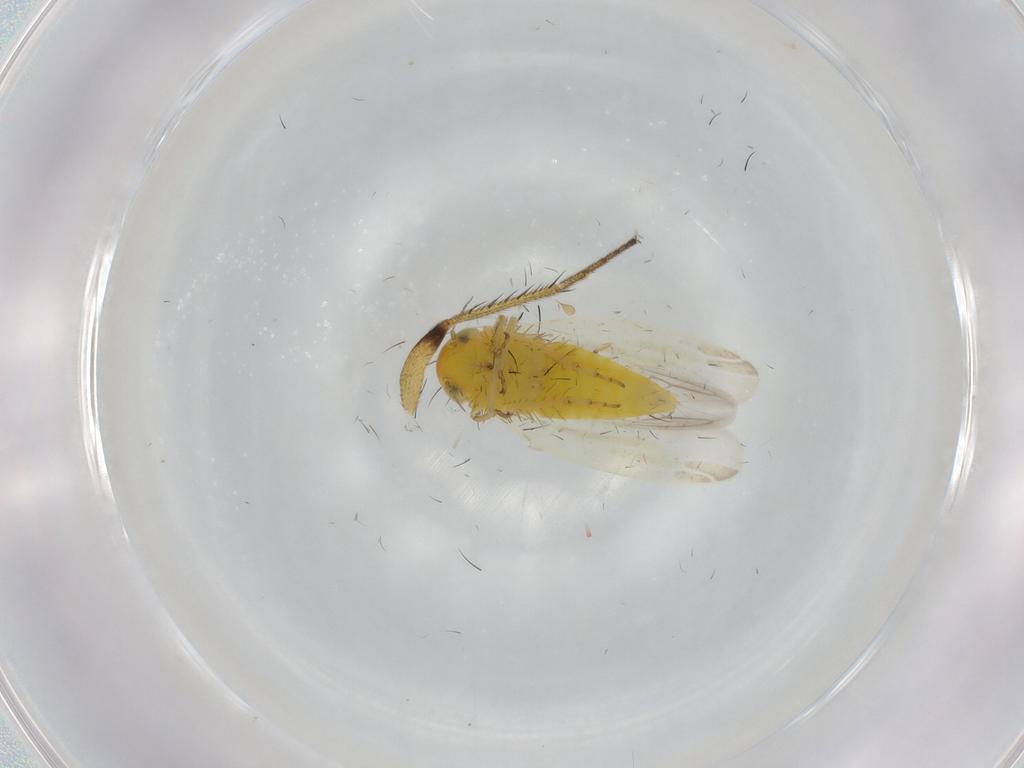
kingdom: Animalia
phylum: Arthropoda
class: Insecta
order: Hemiptera
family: Cicadellidae
